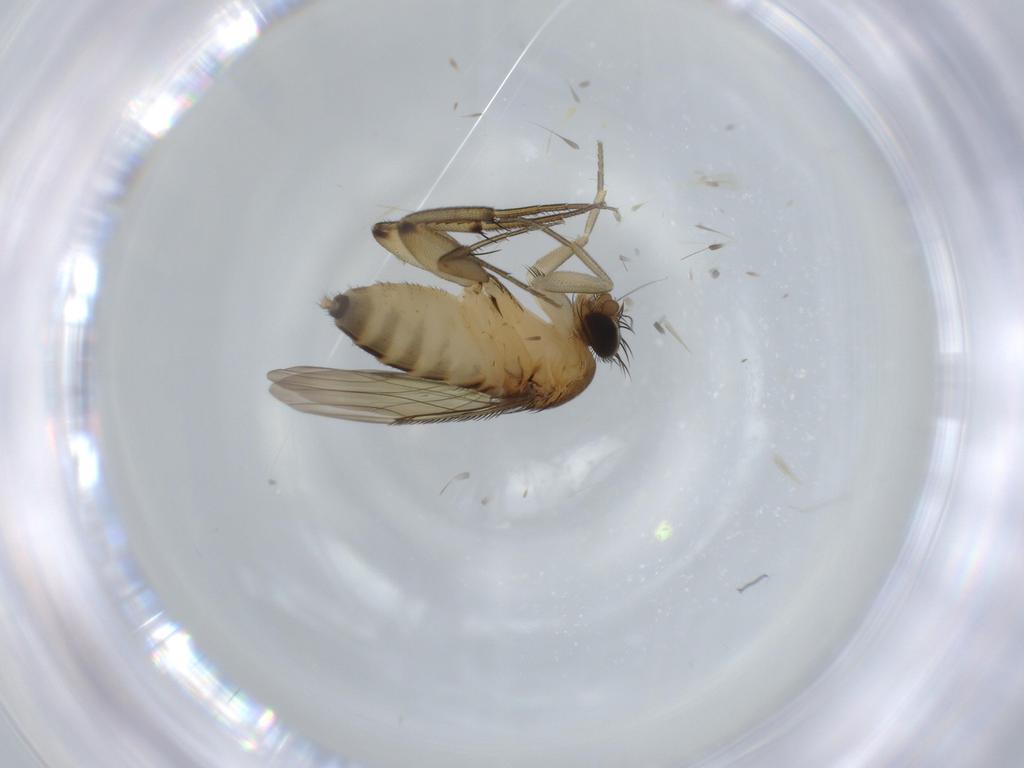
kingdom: Animalia
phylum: Arthropoda
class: Insecta
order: Diptera
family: Phoridae
